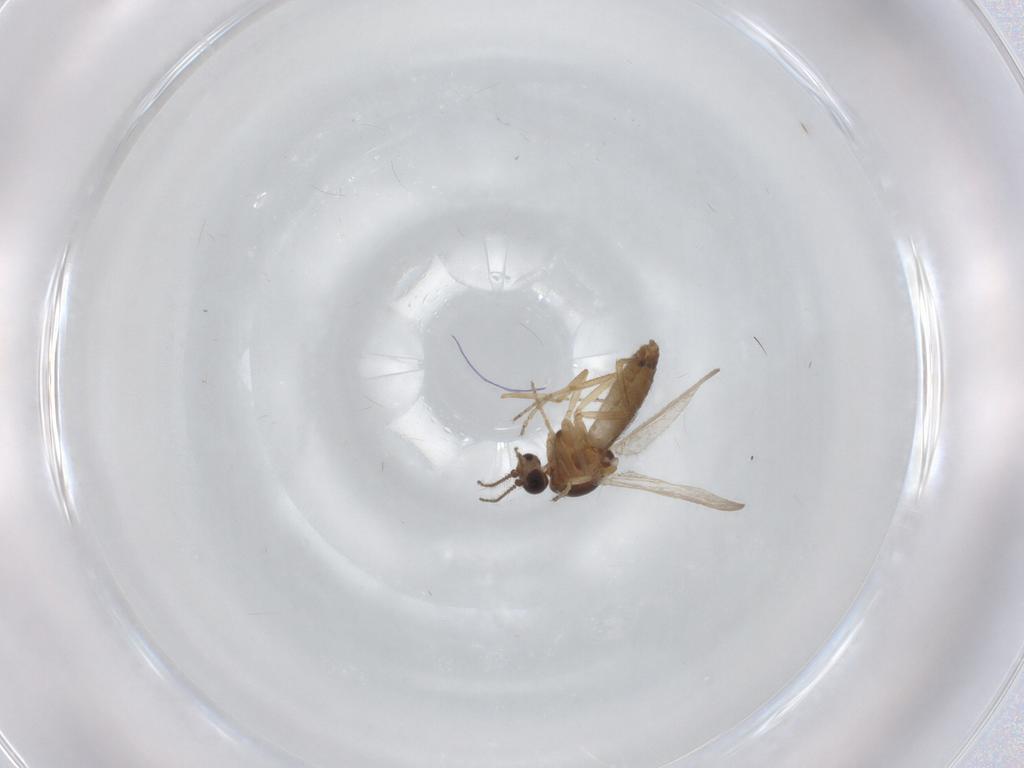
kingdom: Animalia
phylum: Arthropoda
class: Insecta
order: Diptera
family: Ceratopogonidae
